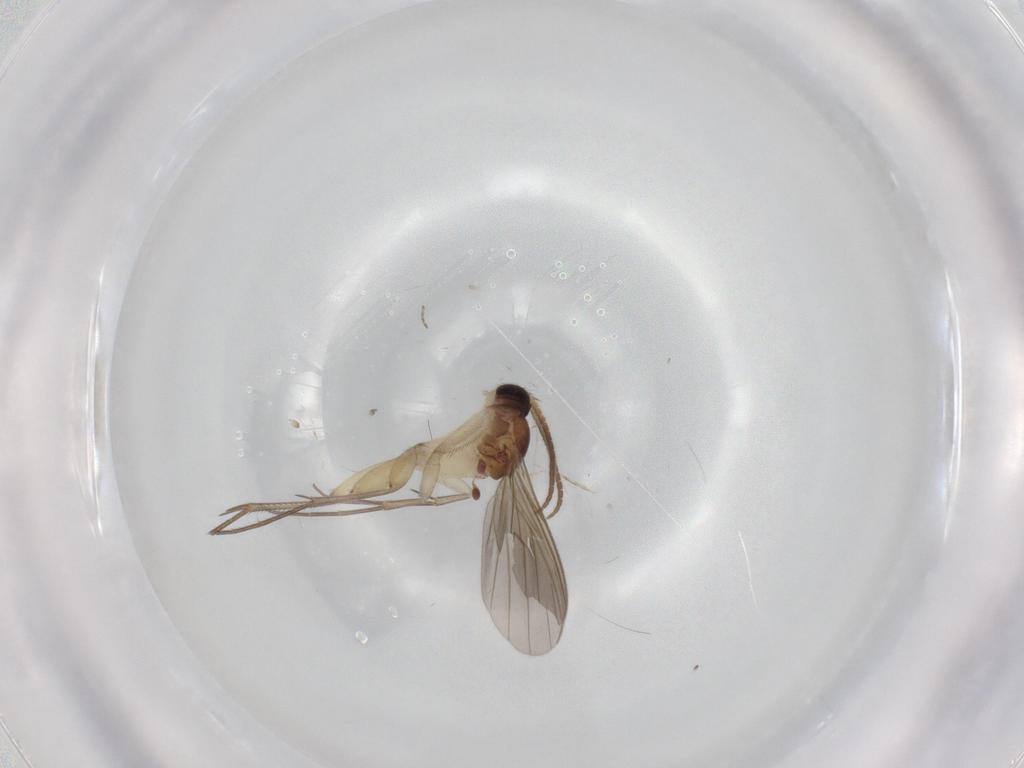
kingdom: Animalia
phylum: Arthropoda
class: Insecta
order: Diptera
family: Mycetophilidae
